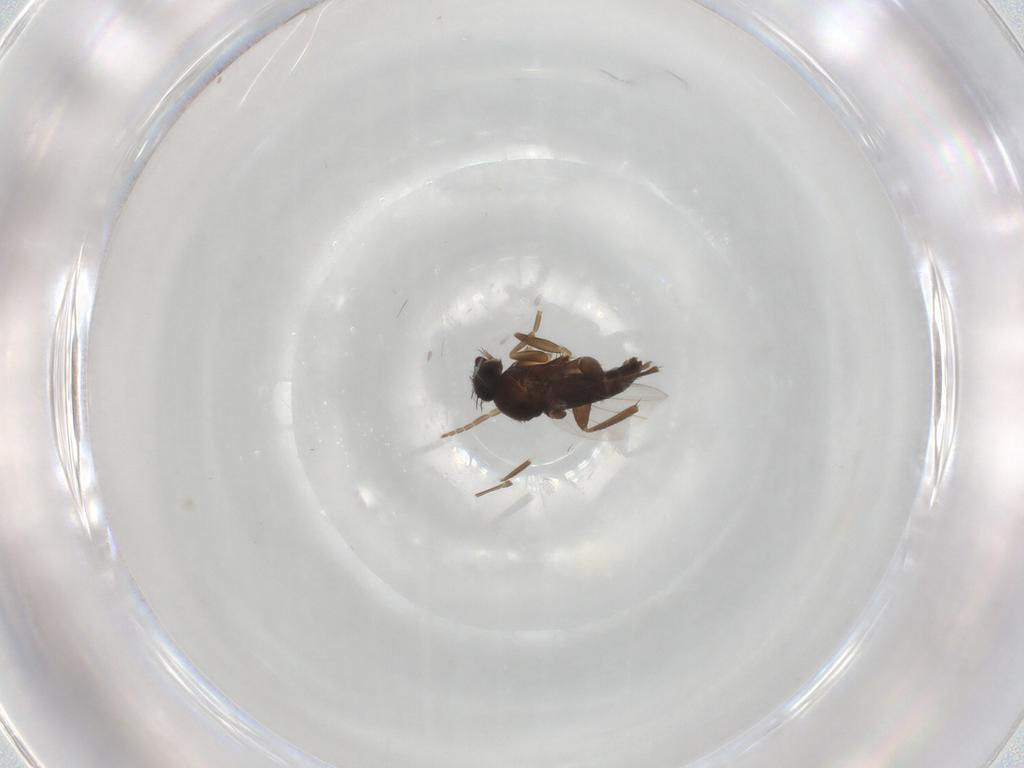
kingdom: Animalia
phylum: Arthropoda
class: Insecta
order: Diptera
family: Phoridae
